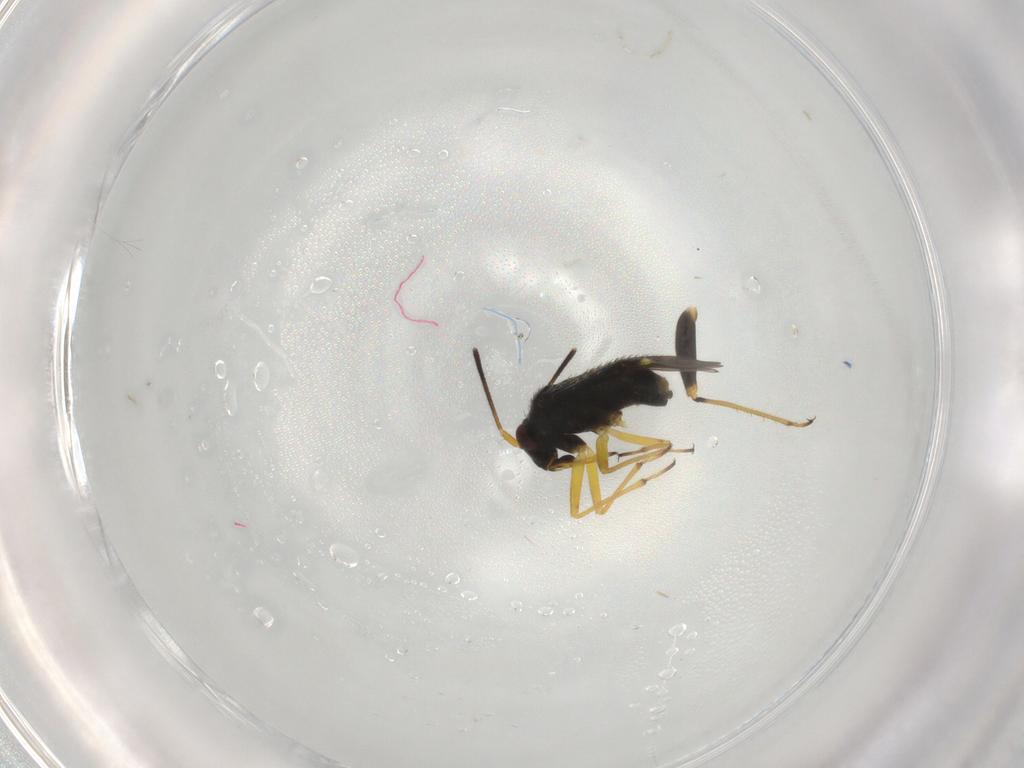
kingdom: Animalia
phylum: Arthropoda
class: Insecta
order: Hemiptera
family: Miridae
